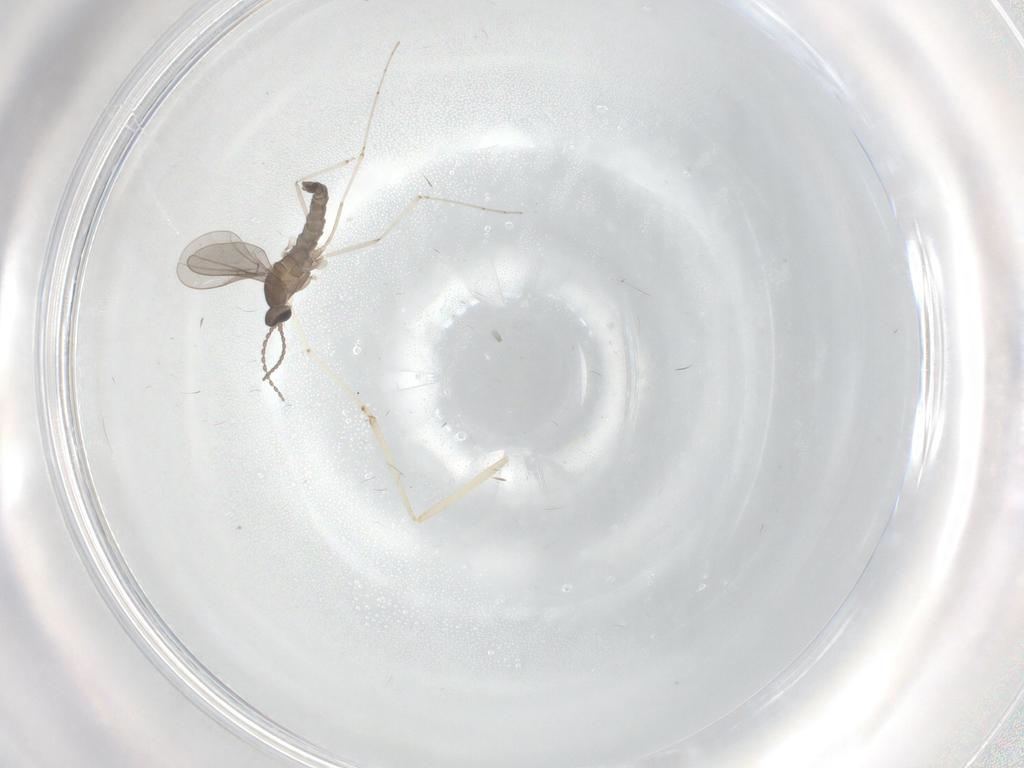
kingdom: Animalia
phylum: Arthropoda
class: Insecta
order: Diptera
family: Cecidomyiidae
